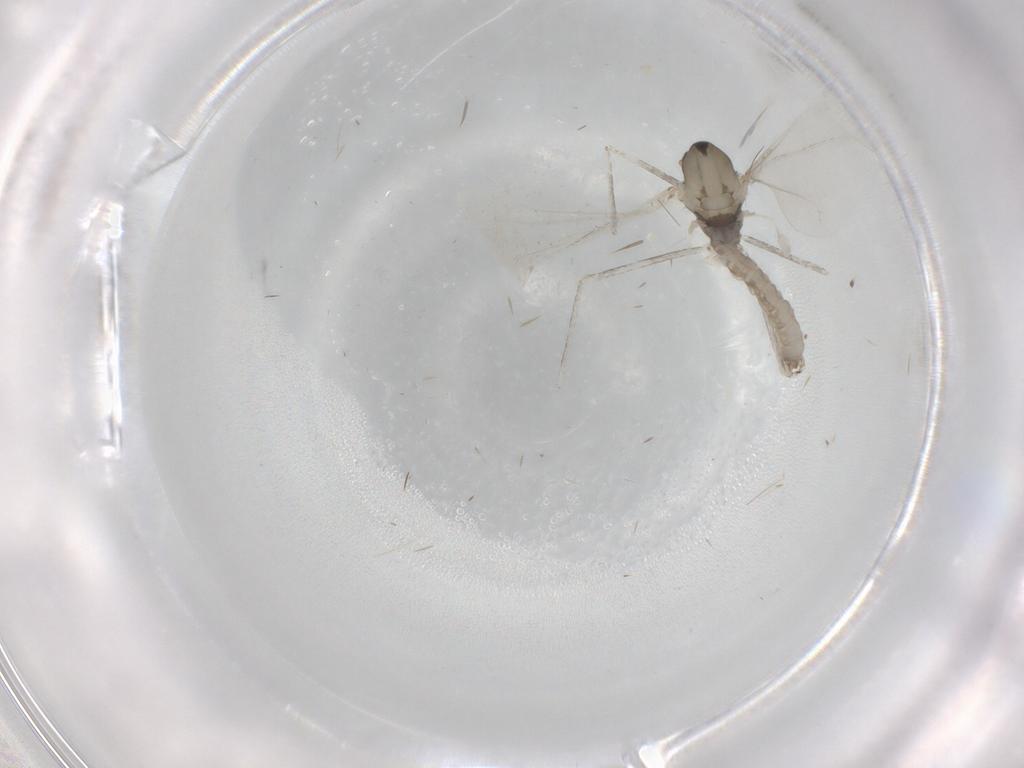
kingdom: Animalia
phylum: Arthropoda
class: Insecta
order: Diptera
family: Cecidomyiidae
